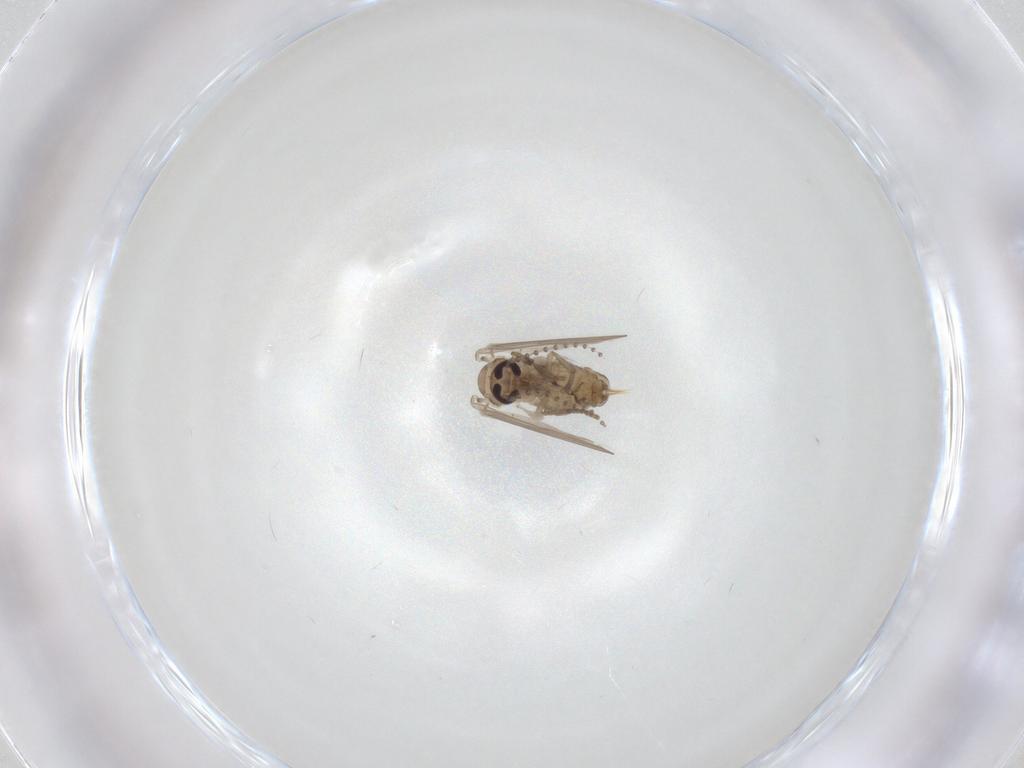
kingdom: Animalia
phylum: Arthropoda
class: Insecta
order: Diptera
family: Psychodidae
